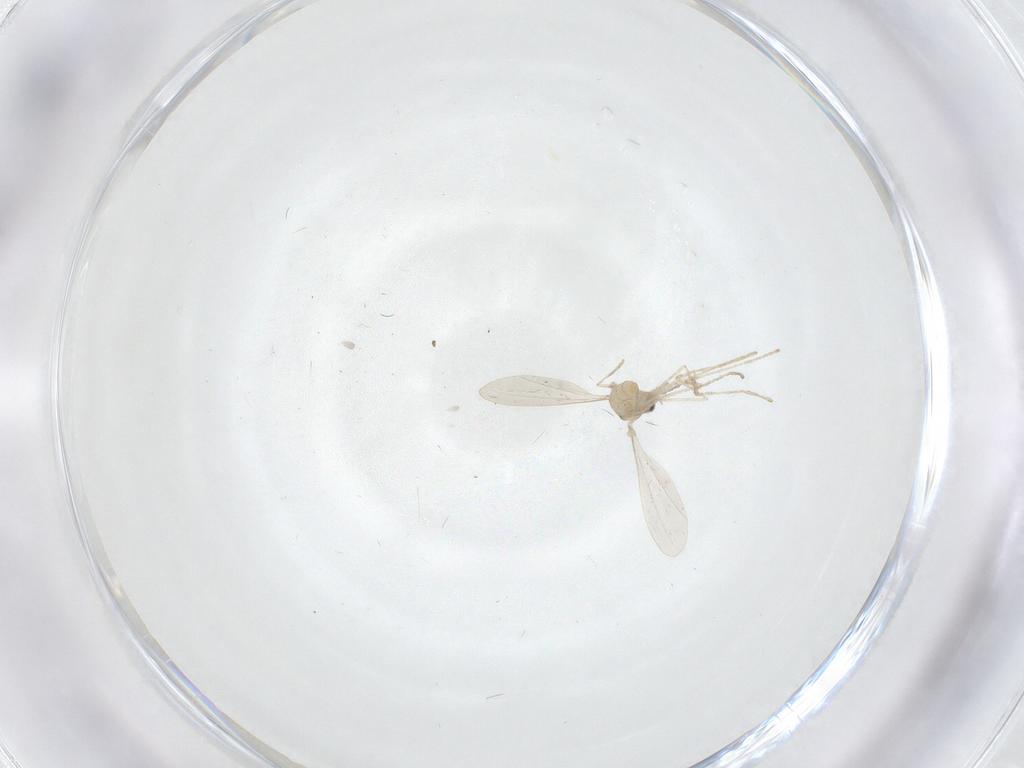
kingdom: Animalia
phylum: Arthropoda
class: Insecta
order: Diptera
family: Cecidomyiidae
